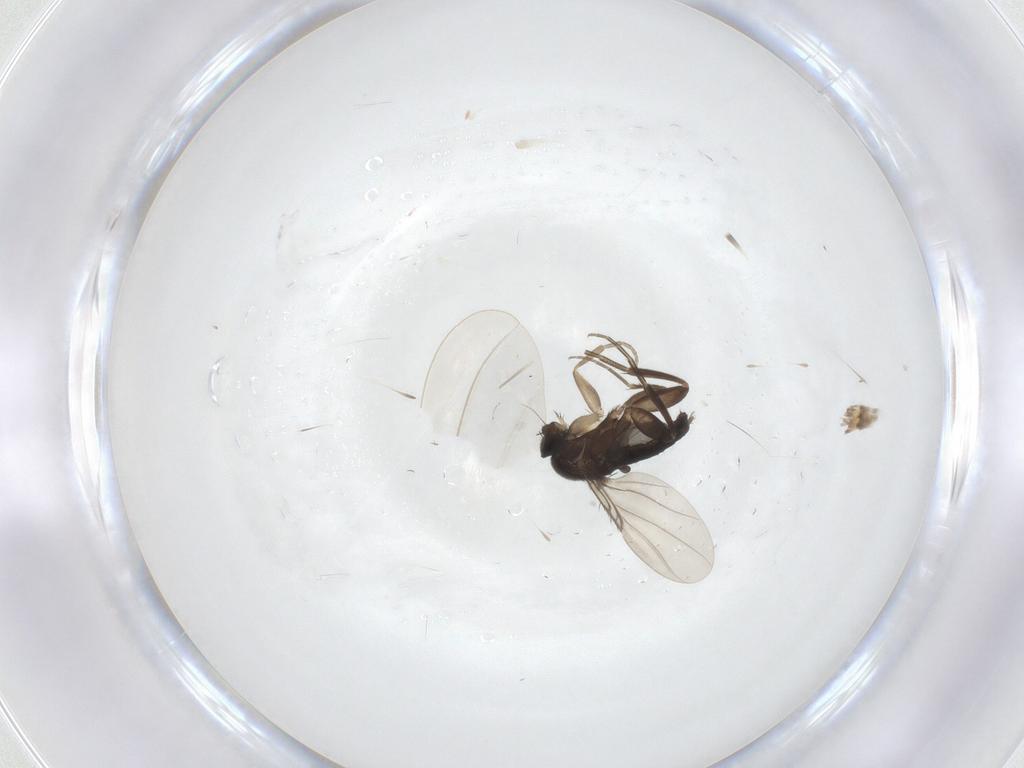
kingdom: Animalia
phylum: Arthropoda
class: Insecta
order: Diptera
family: Phoridae
